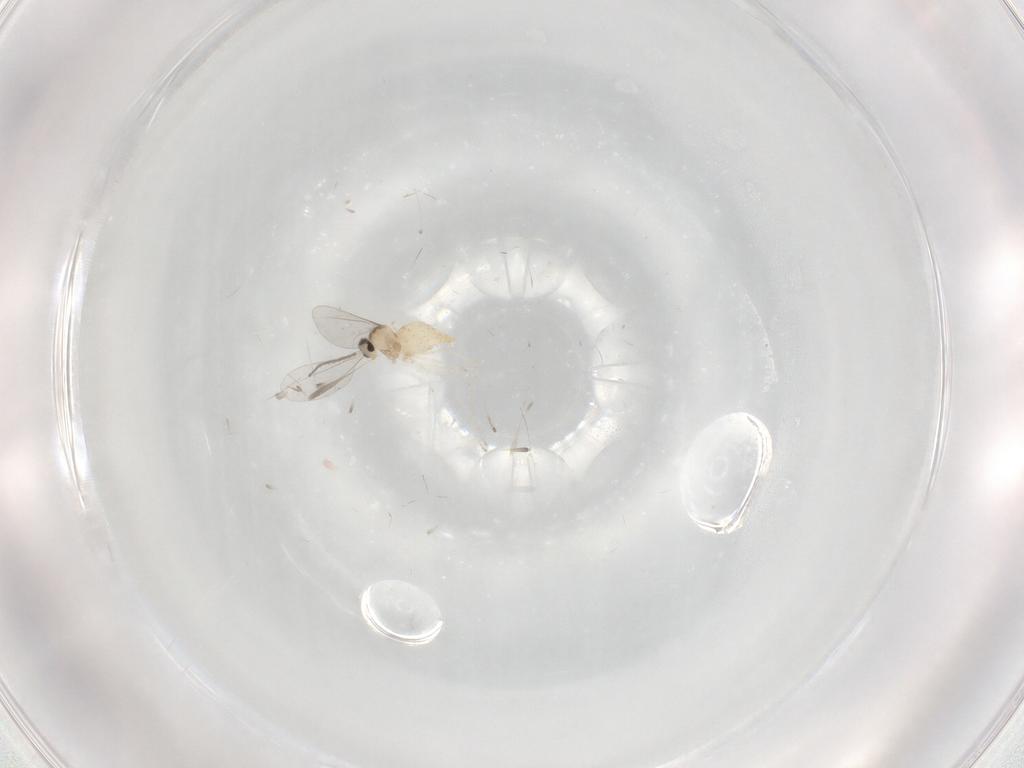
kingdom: Animalia
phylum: Arthropoda
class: Insecta
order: Diptera
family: Cecidomyiidae
